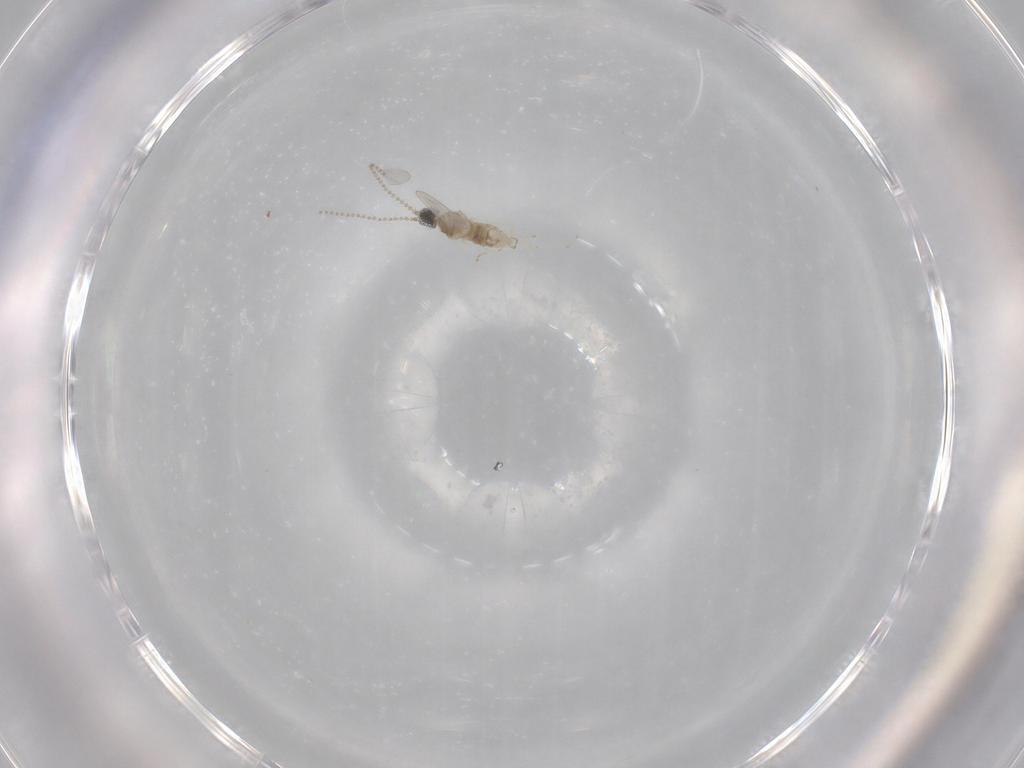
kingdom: Animalia
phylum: Arthropoda
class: Insecta
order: Diptera
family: Cecidomyiidae
